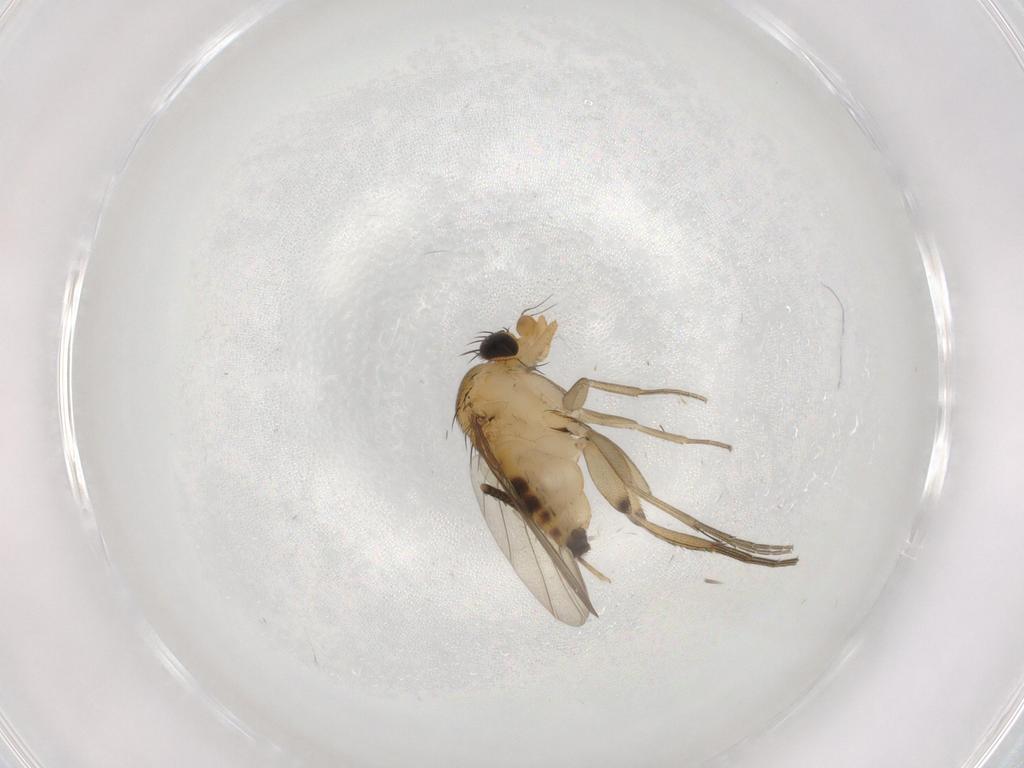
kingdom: Animalia
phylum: Arthropoda
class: Insecta
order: Diptera
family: Phoridae
